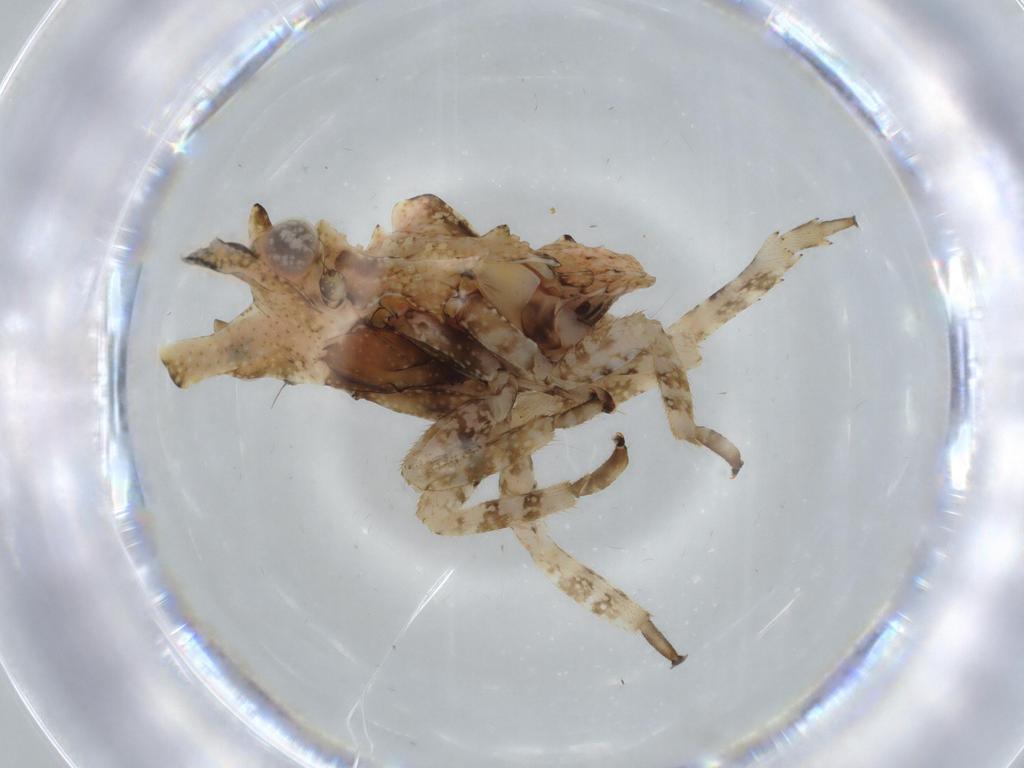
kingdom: Animalia
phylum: Arthropoda
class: Insecta
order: Hemiptera
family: Fulgoridae
